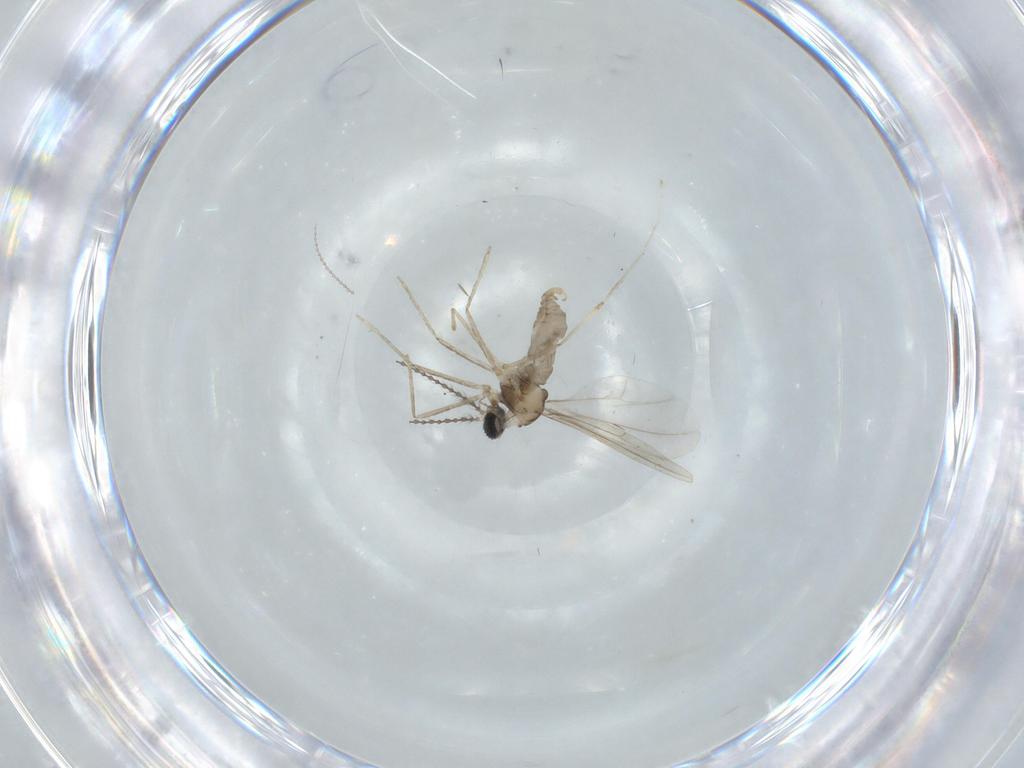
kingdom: Animalia
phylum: Arthropoda
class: Insecta
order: Diptera
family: Cecidomyiidae
